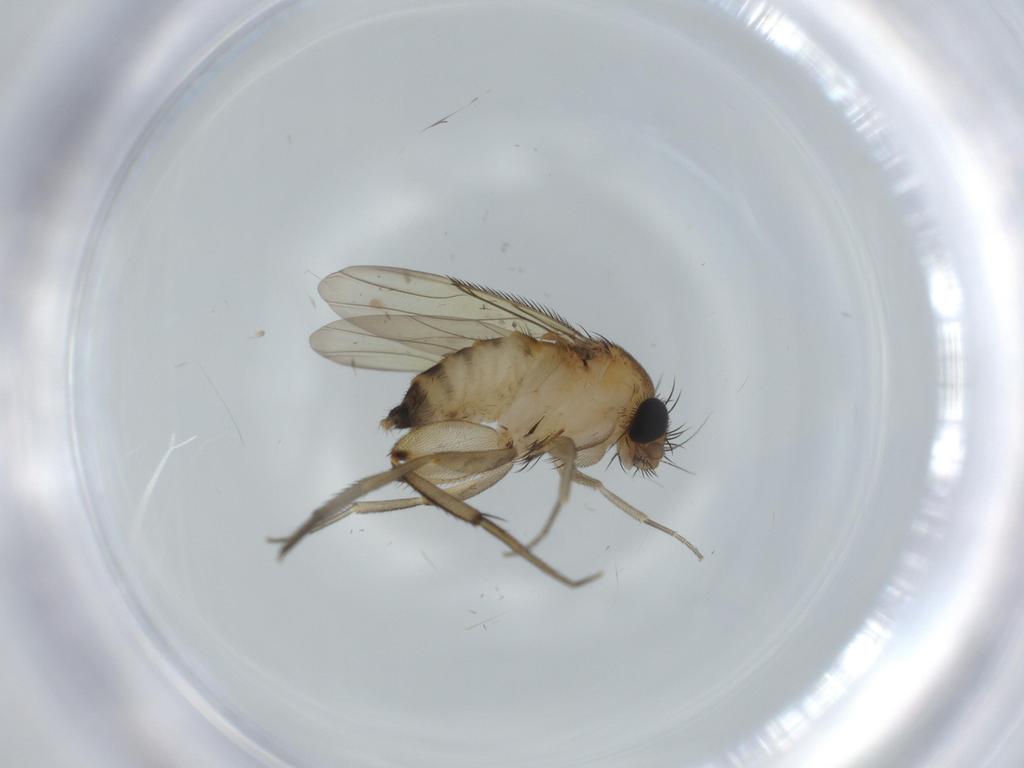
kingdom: Animalia
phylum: Arthropoda
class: Insecta
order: Diptera
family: Phoridae
